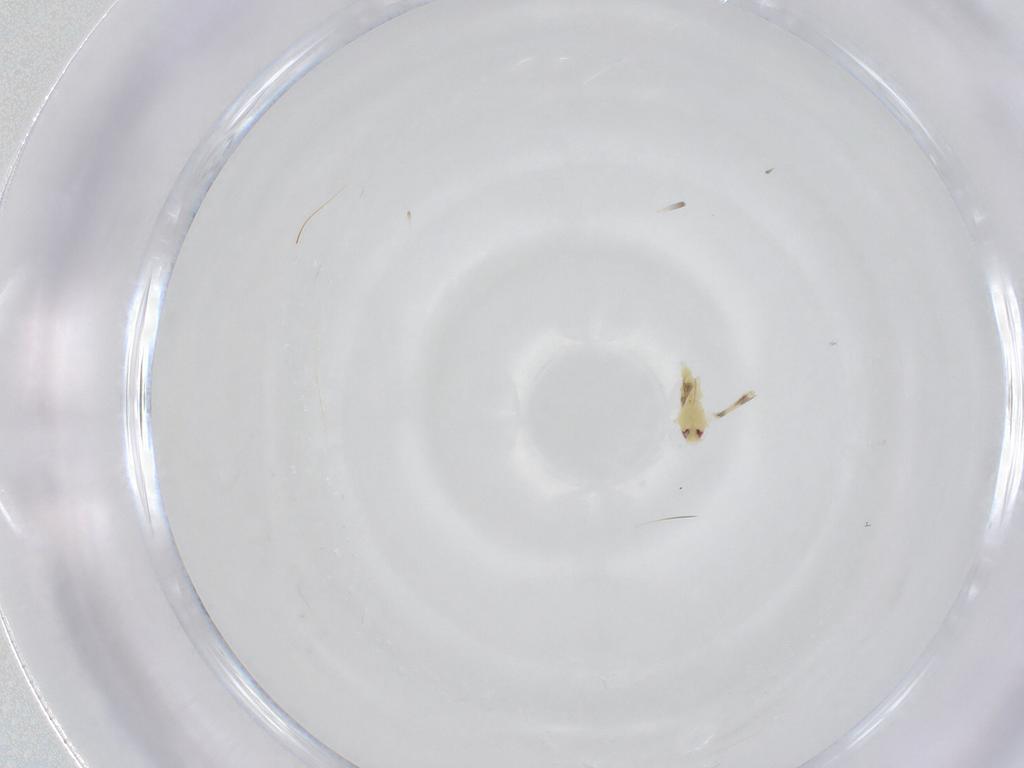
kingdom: Animalia
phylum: Arthropoda
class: Insecta
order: Hemiptera
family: Aleyrodidae
